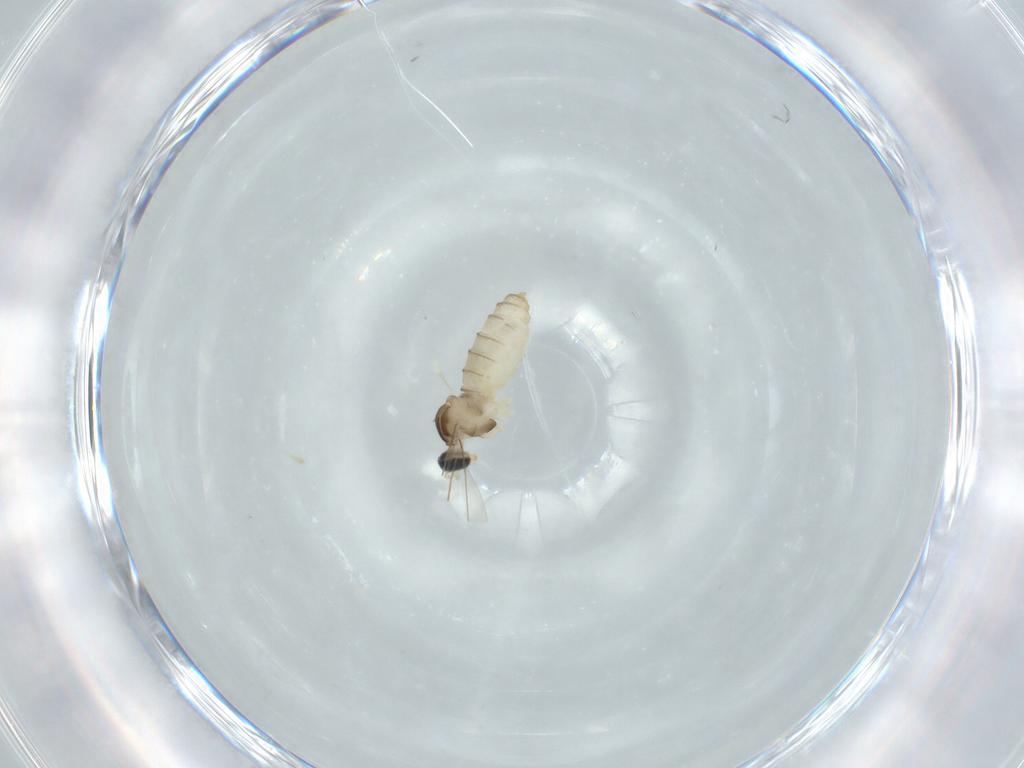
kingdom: Animalia
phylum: Arthropoda
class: Insecta
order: Diptera
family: Cecidomyiidae
